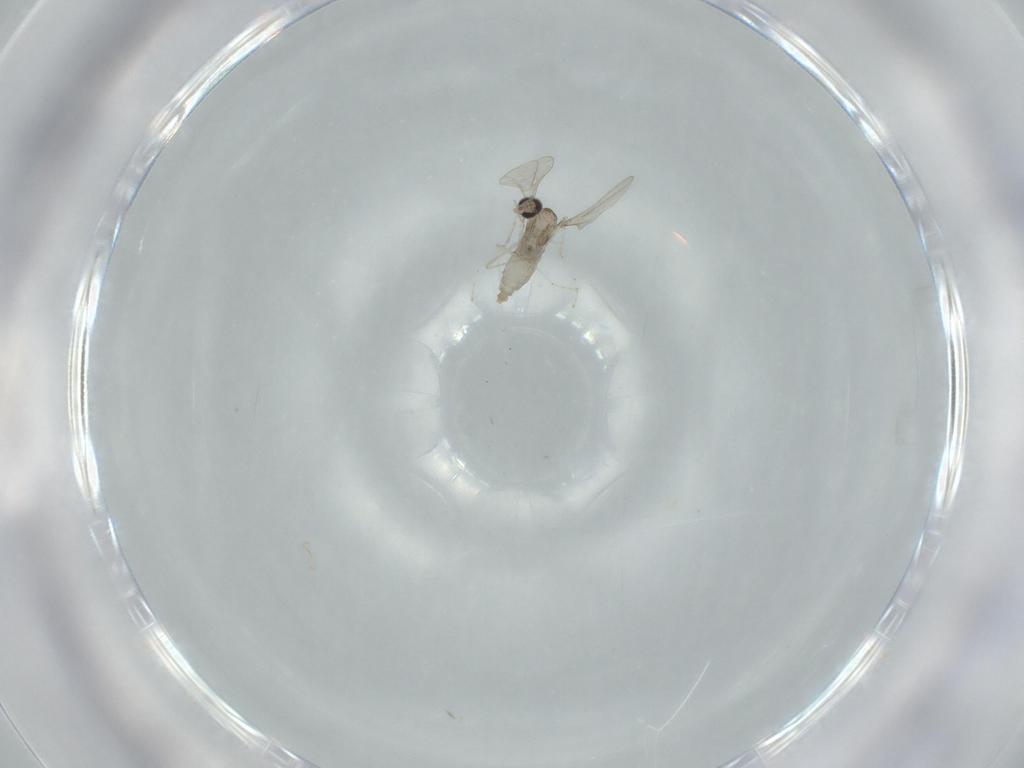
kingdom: Animalia
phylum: Arthropoda
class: Insecta
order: Diptera
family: Cecidomyiidae
